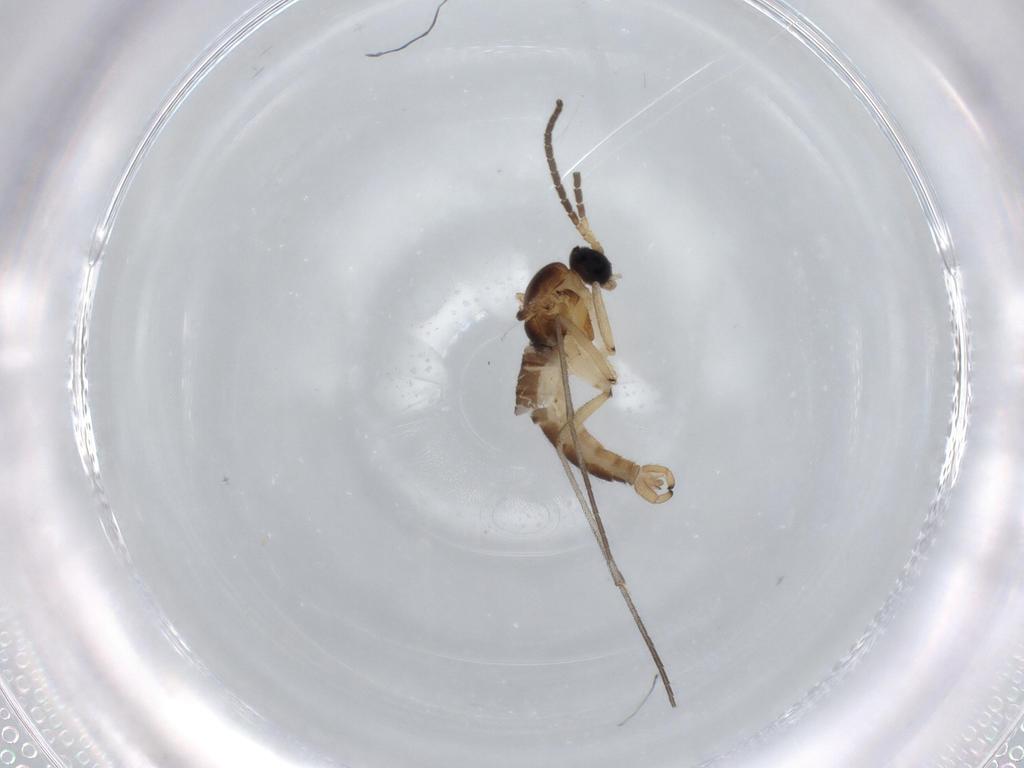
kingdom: Animalia
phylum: Arthropoda
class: Insecta
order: Diptera
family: Sciaridae
